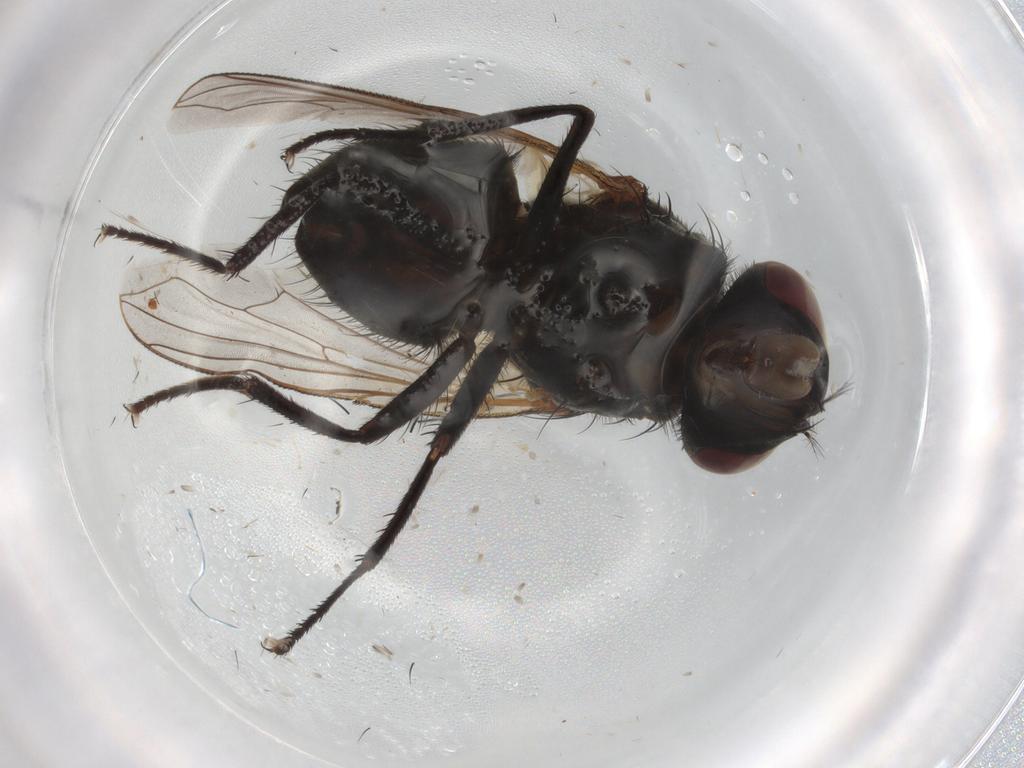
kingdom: Animalia
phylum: Arthropoda
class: Insecta
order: Diptera
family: Muscidae
